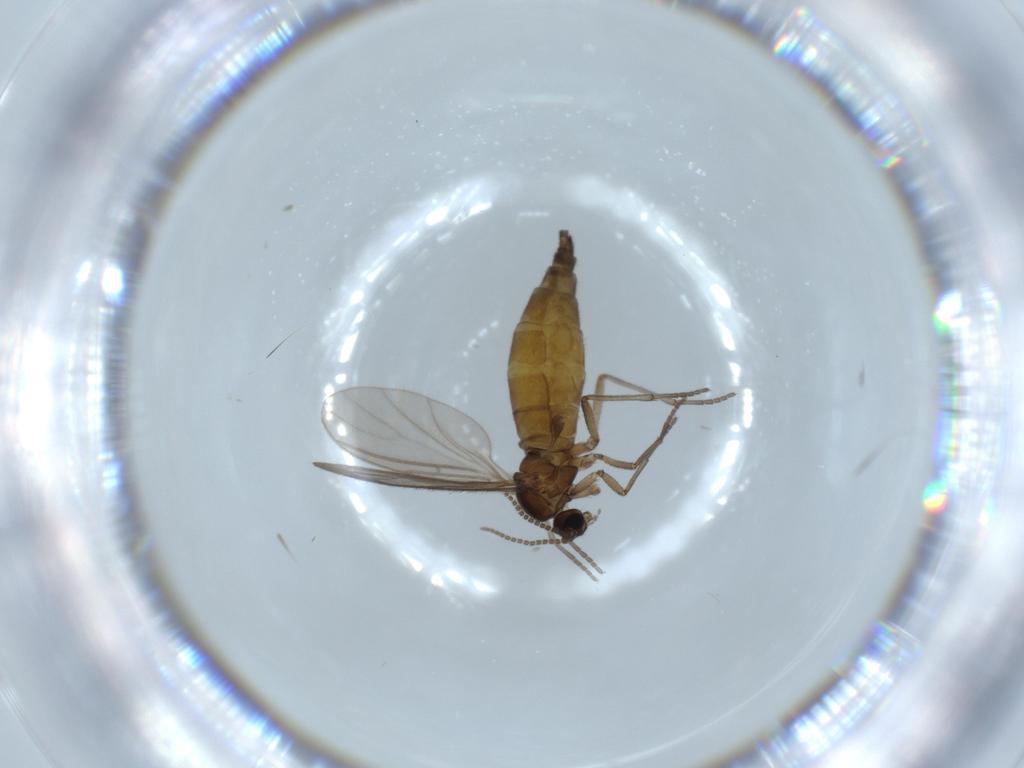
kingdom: Animalia
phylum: Arthropoda
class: Insecta
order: Diptera
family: Sciaridae
